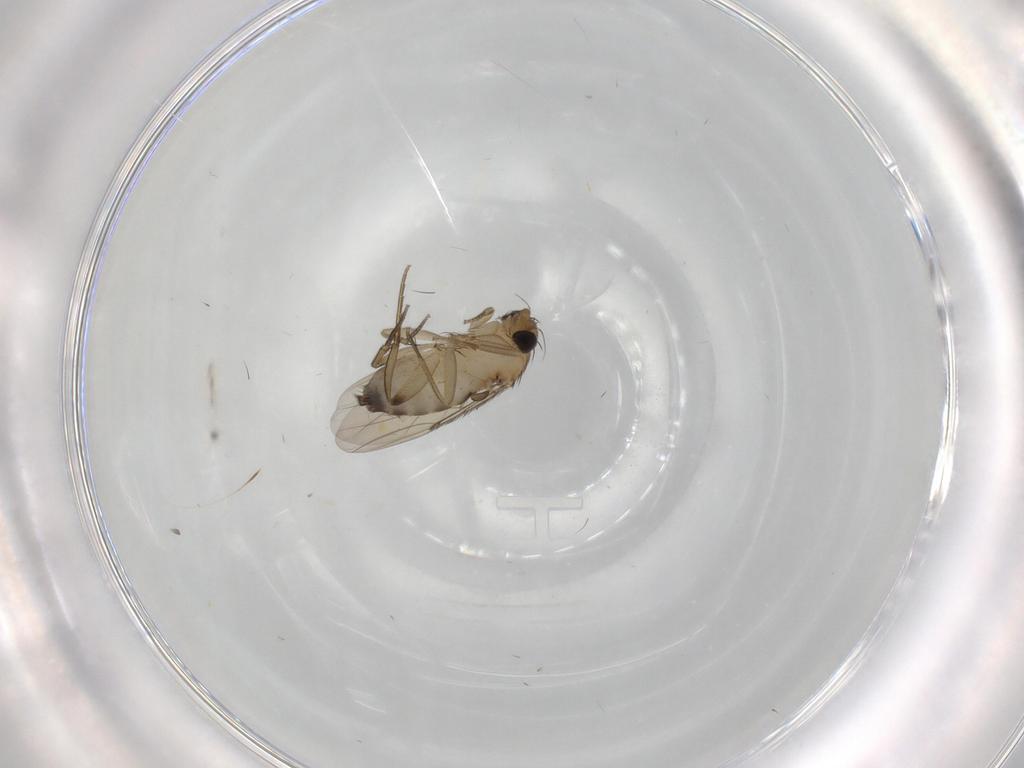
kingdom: Animalia
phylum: Arthropoda
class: Insecta
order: Diptera
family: Phoridae
